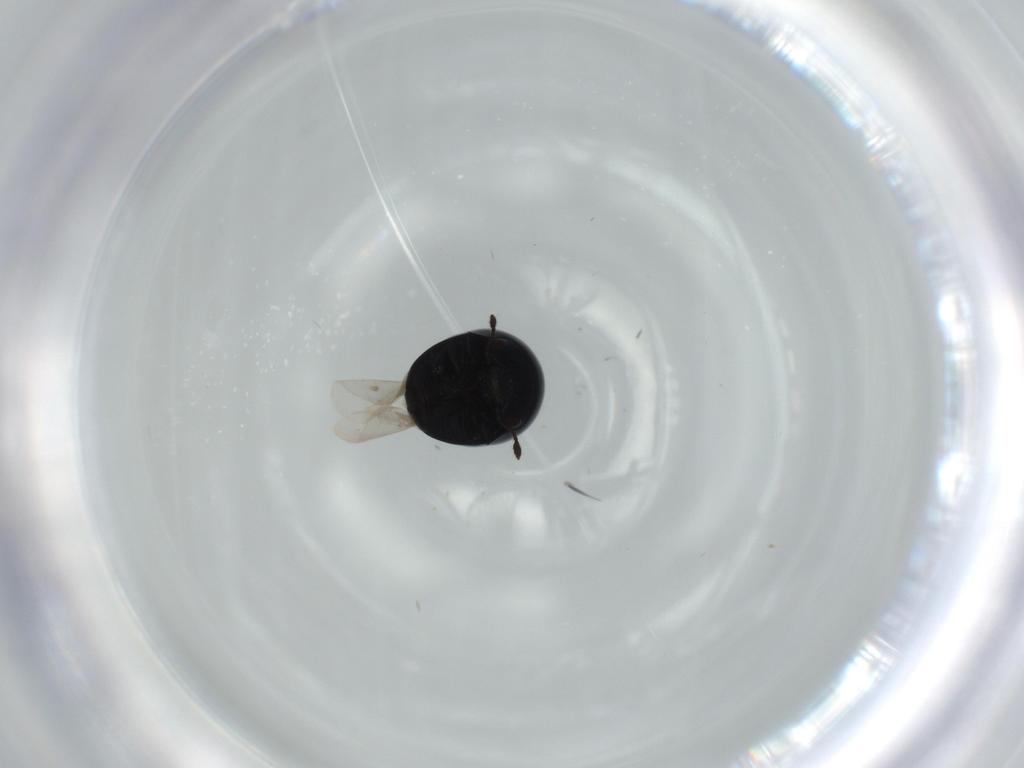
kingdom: Animalia
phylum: Arthropoda
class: Insecta
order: Coleoptera
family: Cybocephalidae
